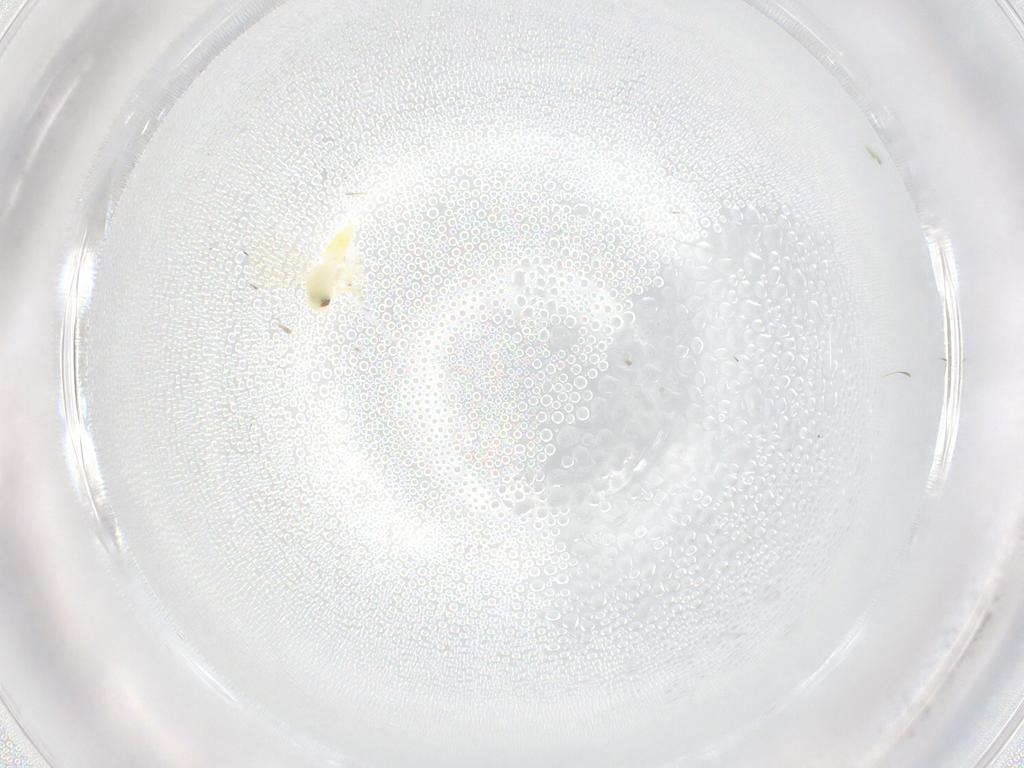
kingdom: Animalia
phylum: Arthropoda
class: Insecta
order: Hemiptera
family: Aleyrodidae
